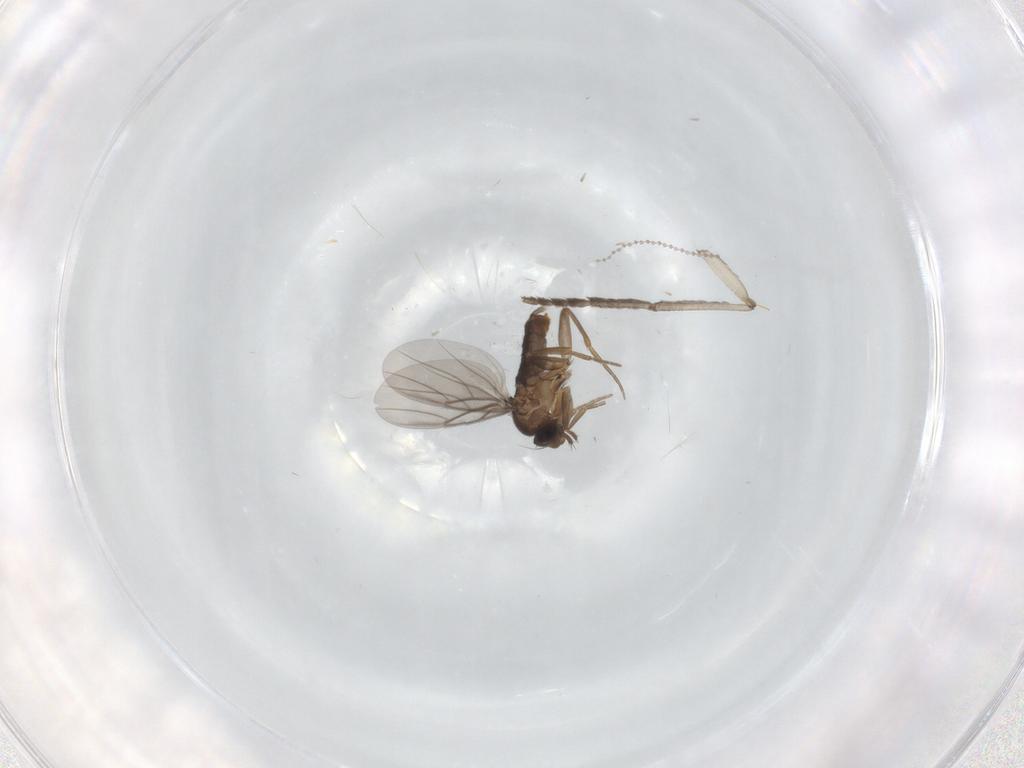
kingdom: Animalia
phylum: Arthropoda
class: Insecta
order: Diptera
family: Phoridae
